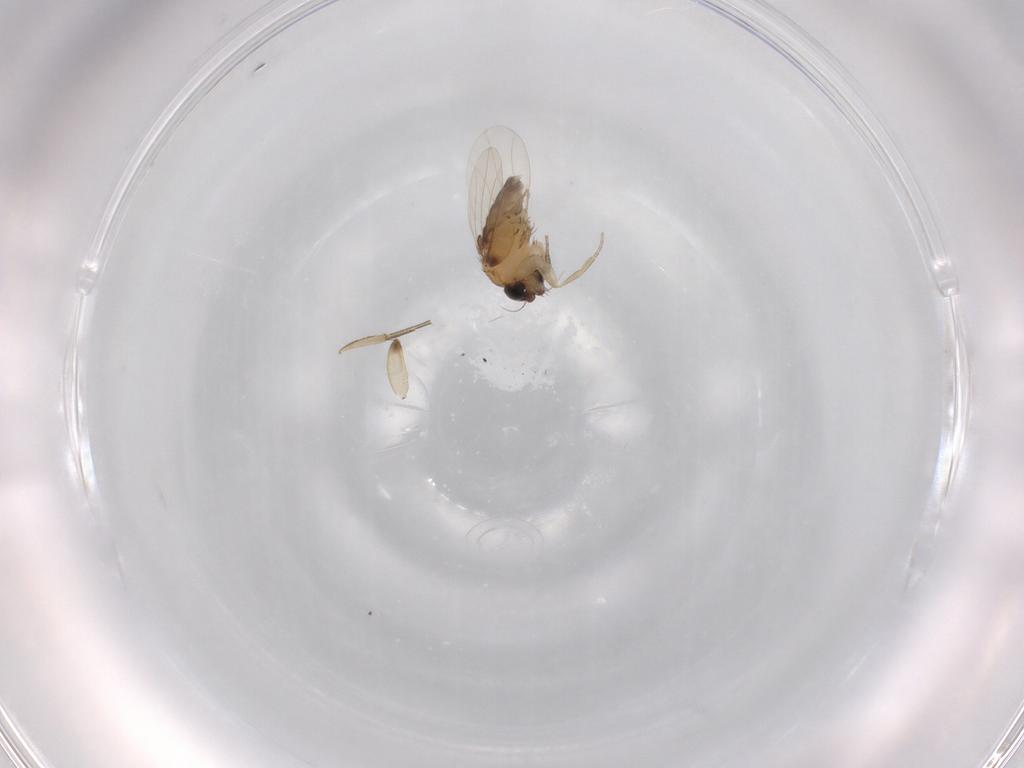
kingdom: Animalia
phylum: Arthropoda
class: Insecta
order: Diptera
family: Phoridae
